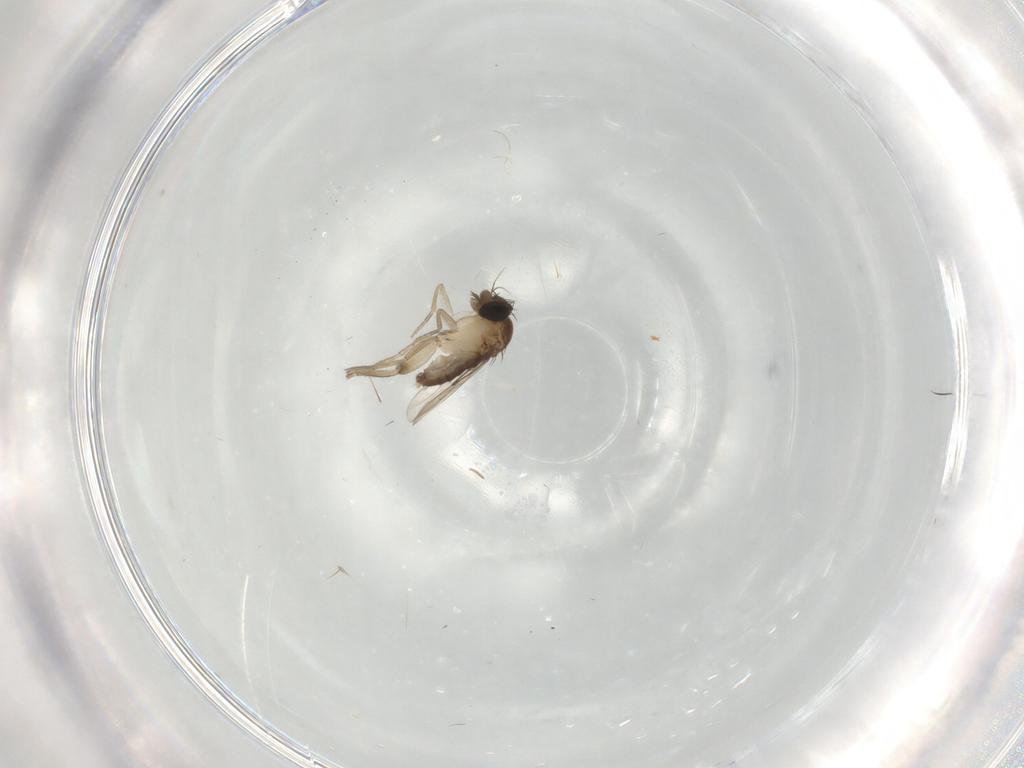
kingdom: Animalia
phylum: Arthropoda
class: Insecta
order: Diptera
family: Phoridae
